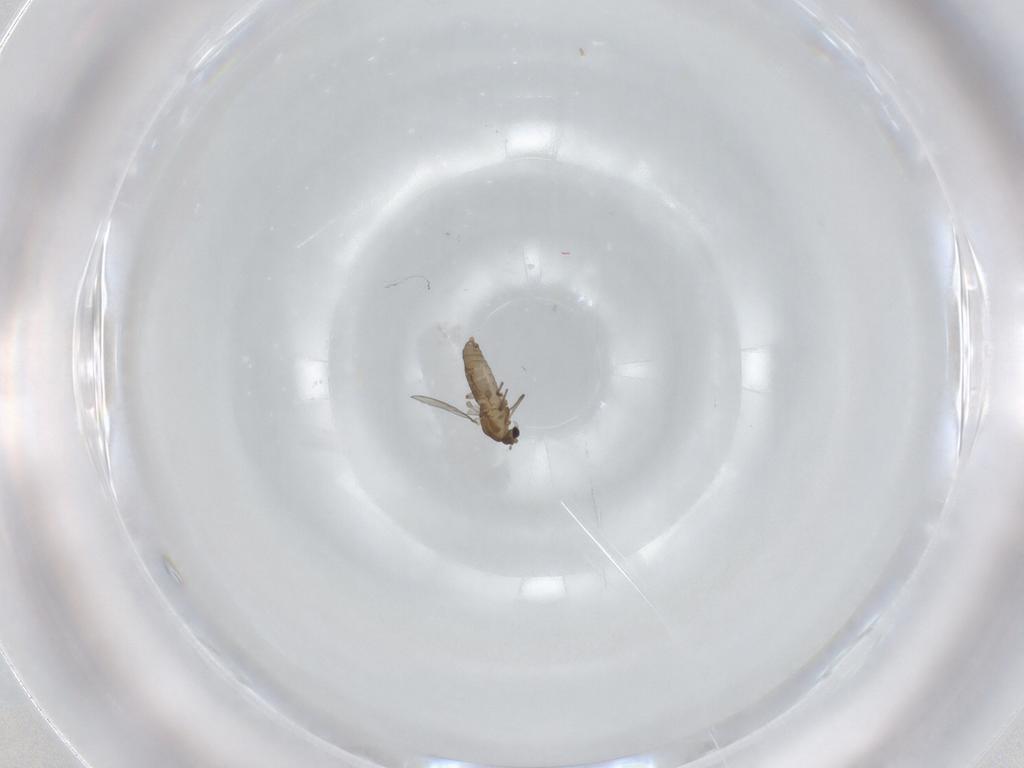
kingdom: Animalia
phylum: Arthropoda
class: Insecta
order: Diptera
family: Chironomidae
